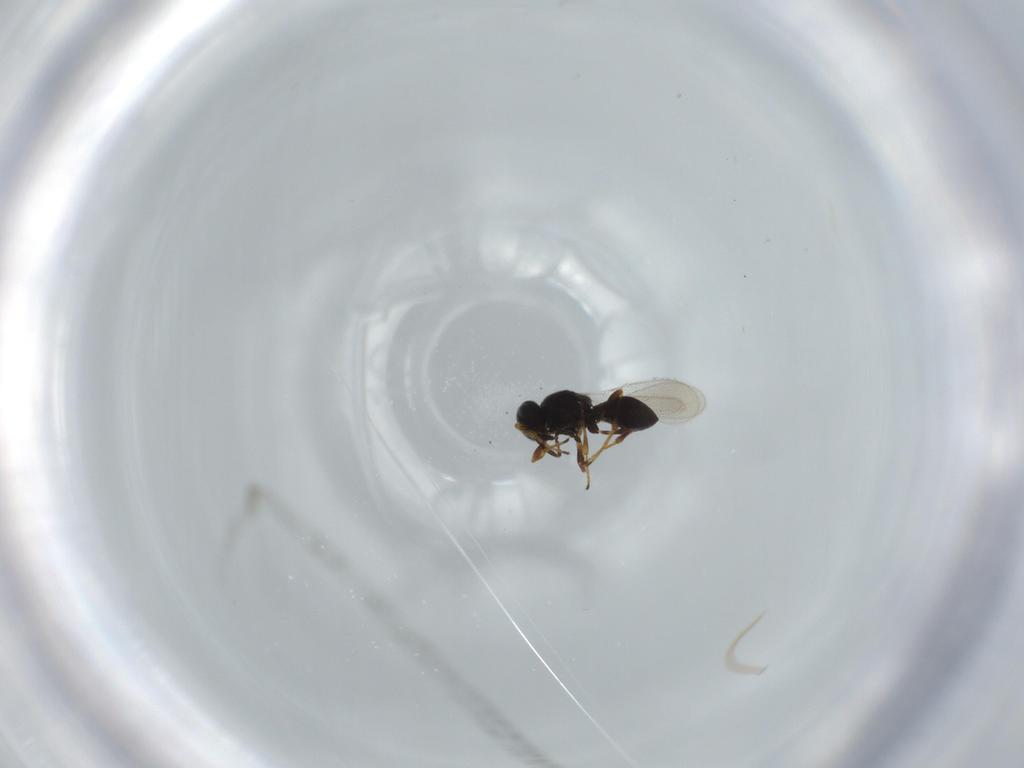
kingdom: Animalia
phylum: Arthropoda
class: Insecta
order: Hymenoptera
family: Platygastridae
